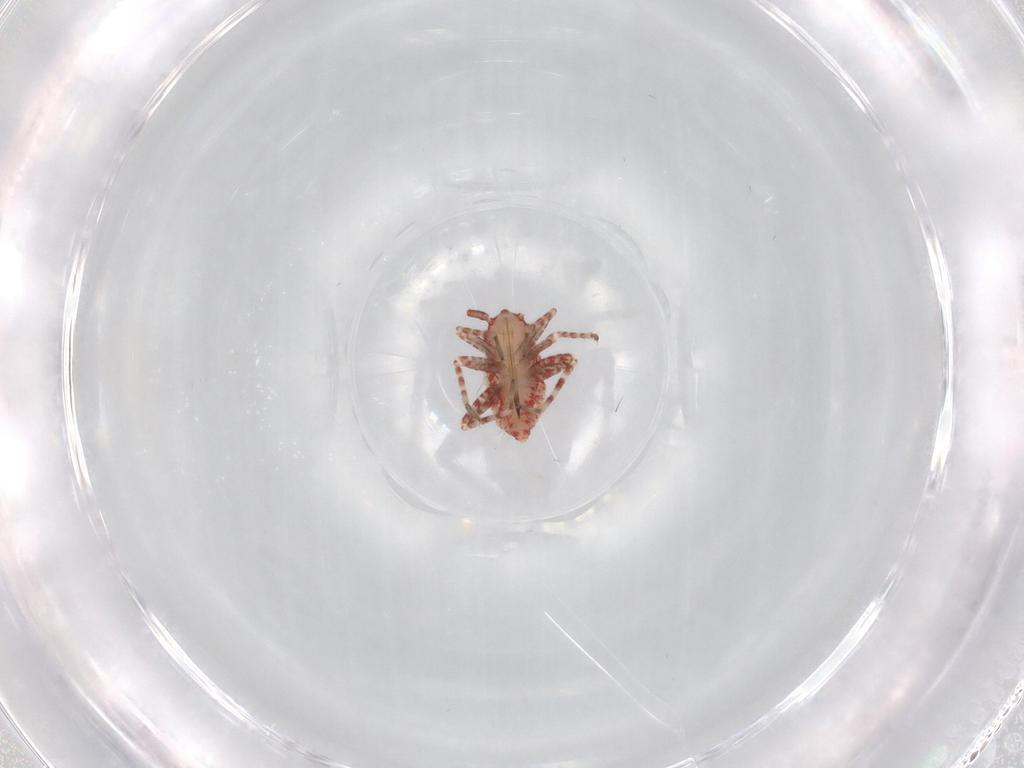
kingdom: Animalia
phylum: Arthropoda
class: Insecta
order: Hemiptera
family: Miridae
